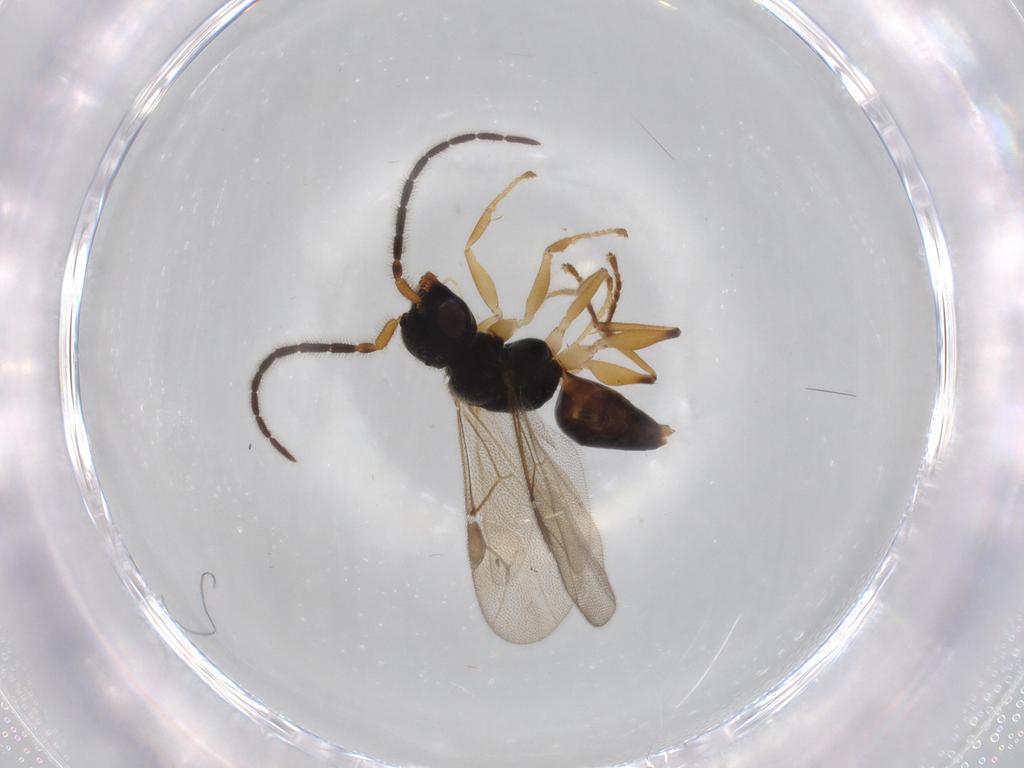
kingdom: Animalia
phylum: Arthropoda
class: Insecta
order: Hymenoptera
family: Dryinidae
